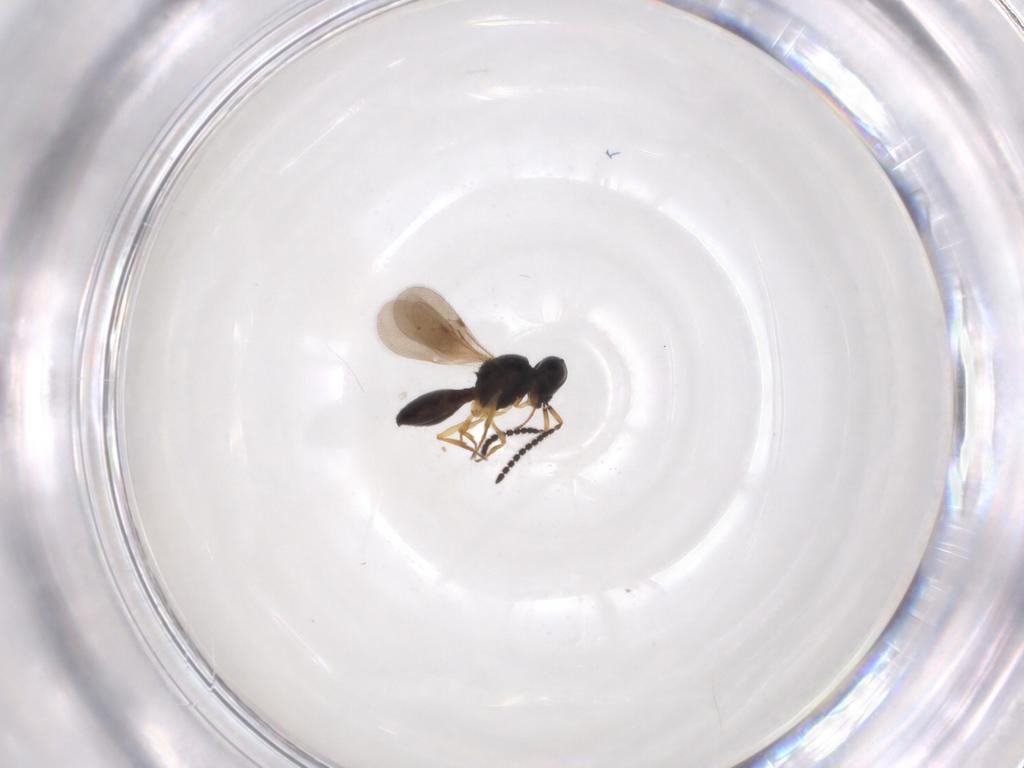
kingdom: Animalia
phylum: Arthropoda
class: Insecta
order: Hymenoptera
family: Scelionidae
